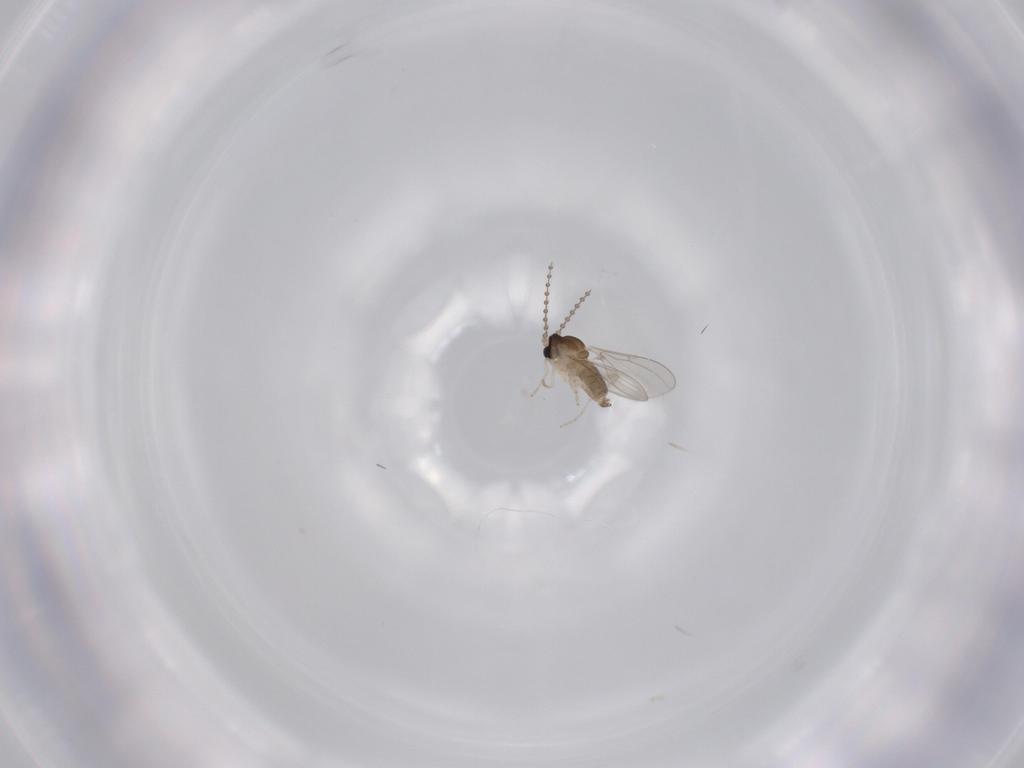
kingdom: Animalia
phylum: Arthropoda
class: Insecta
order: Diptera
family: Cecidomyiidae
